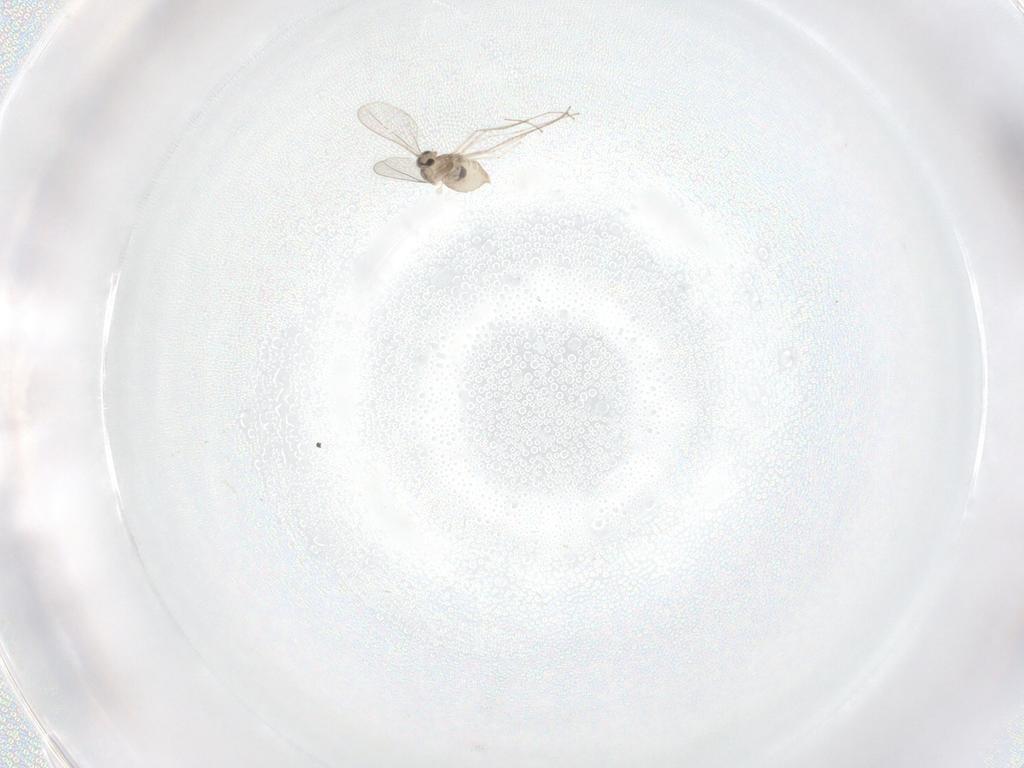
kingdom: Animalia
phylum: Arthropoda
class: Insecta
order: Diptera
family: Cecidomyiidae
